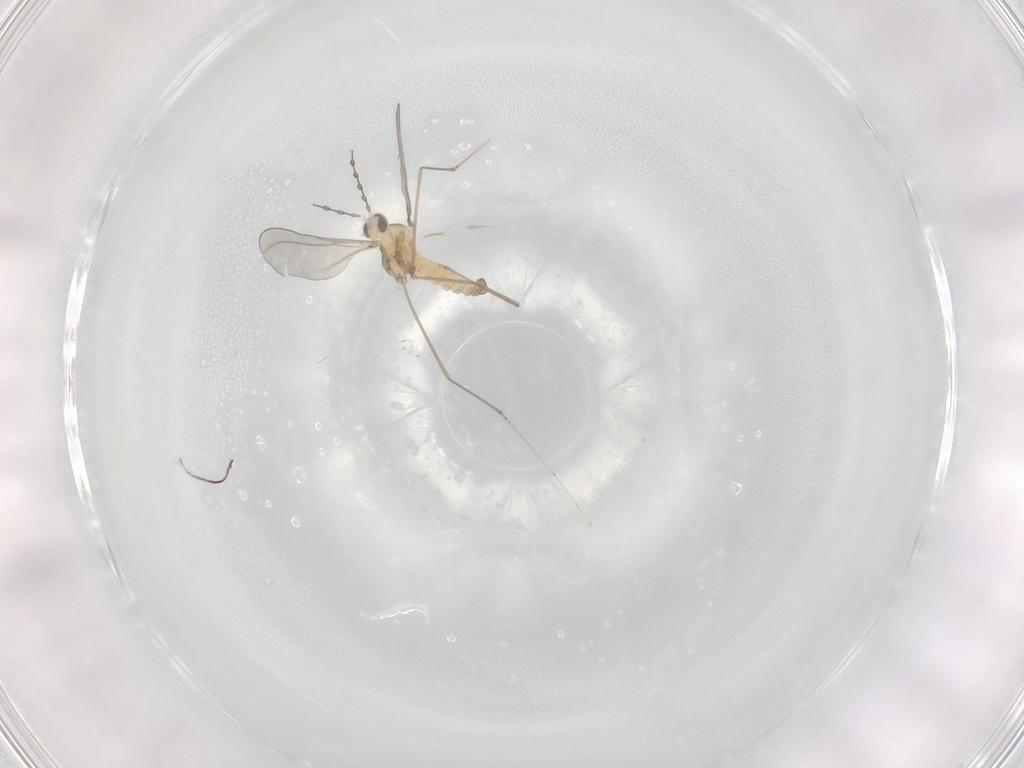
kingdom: Animalia
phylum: Arthropoda
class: Insecta
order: Diptera
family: Cecidomyiidae
